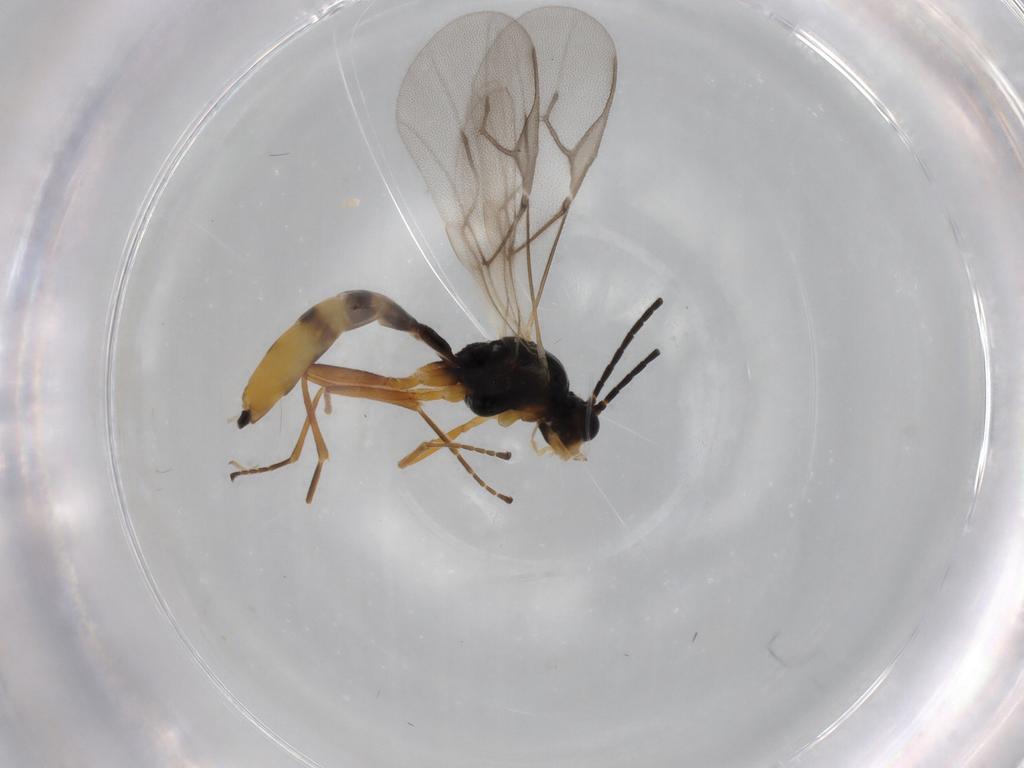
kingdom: Animalia
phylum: Arthropoda
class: Insecta
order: Hymenoptera
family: Braconidae
